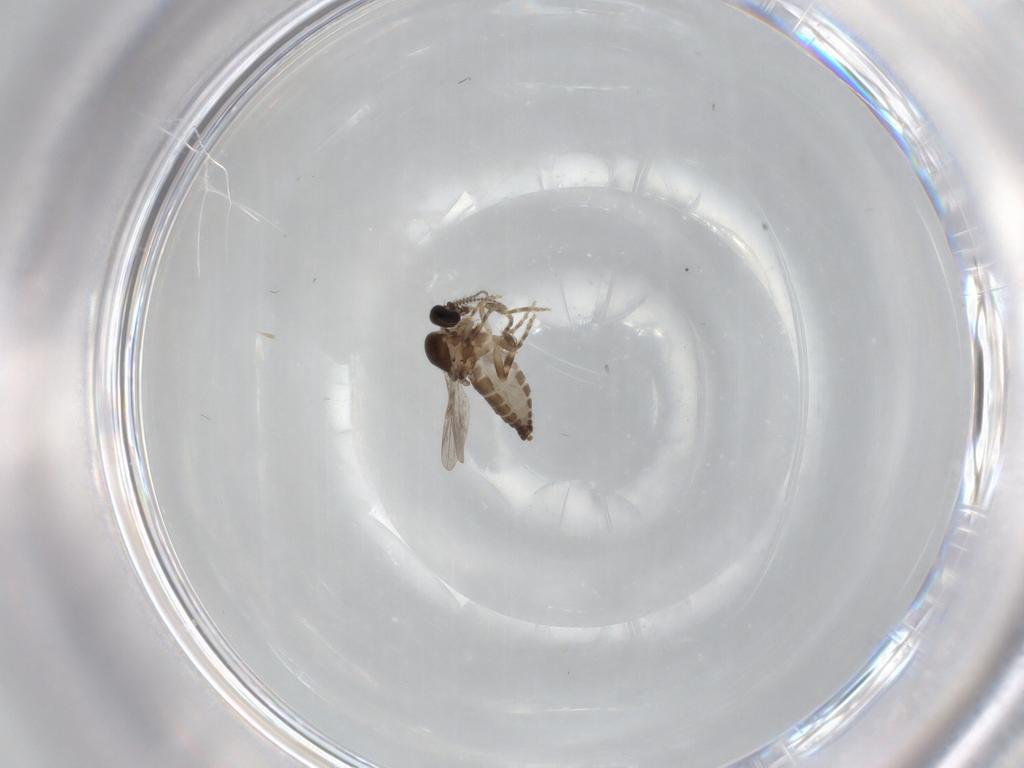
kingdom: Animalia
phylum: Arthropoda
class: Insecta
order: Diptera
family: Ceratopogonidae
